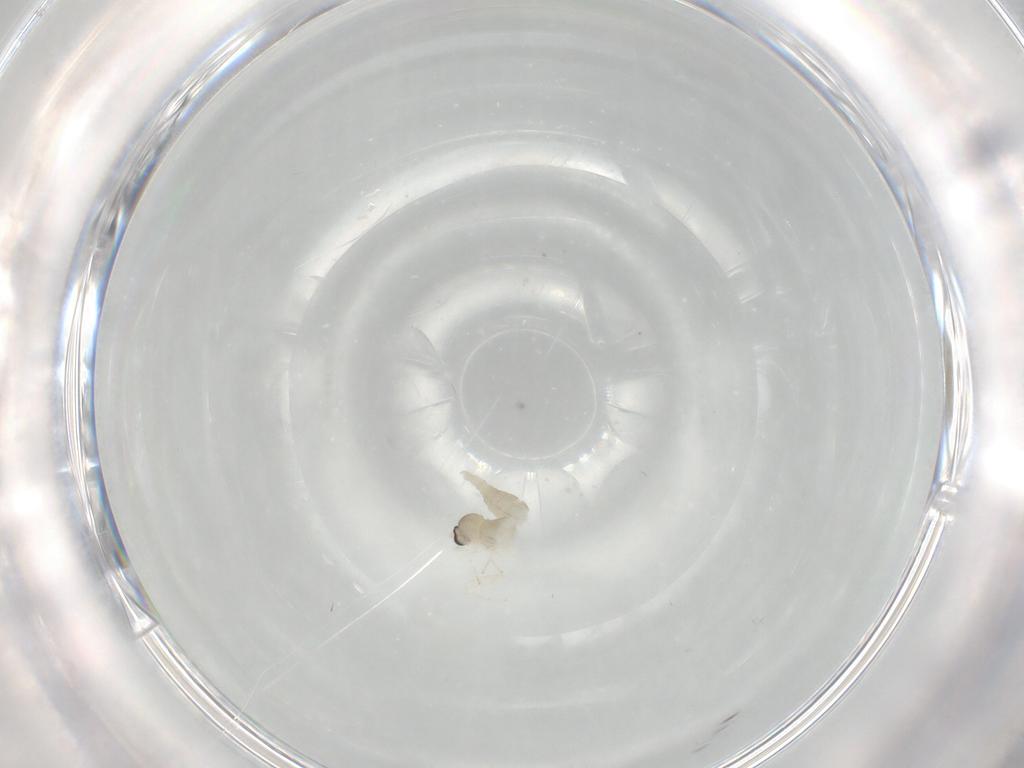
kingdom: Animalia
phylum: Arthropoda
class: Insecta
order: Diptera
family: Cecidomyiidae
